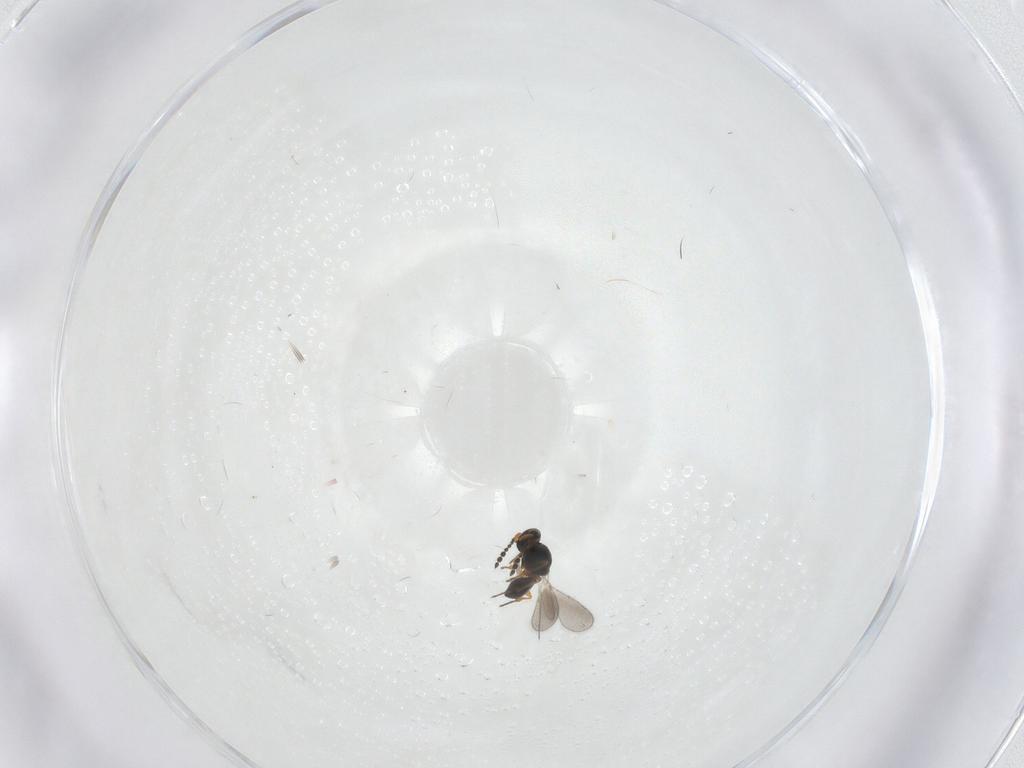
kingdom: Animalia
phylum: Arthropoda
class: Insecta
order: Hymenoptera
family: Platygastridae
